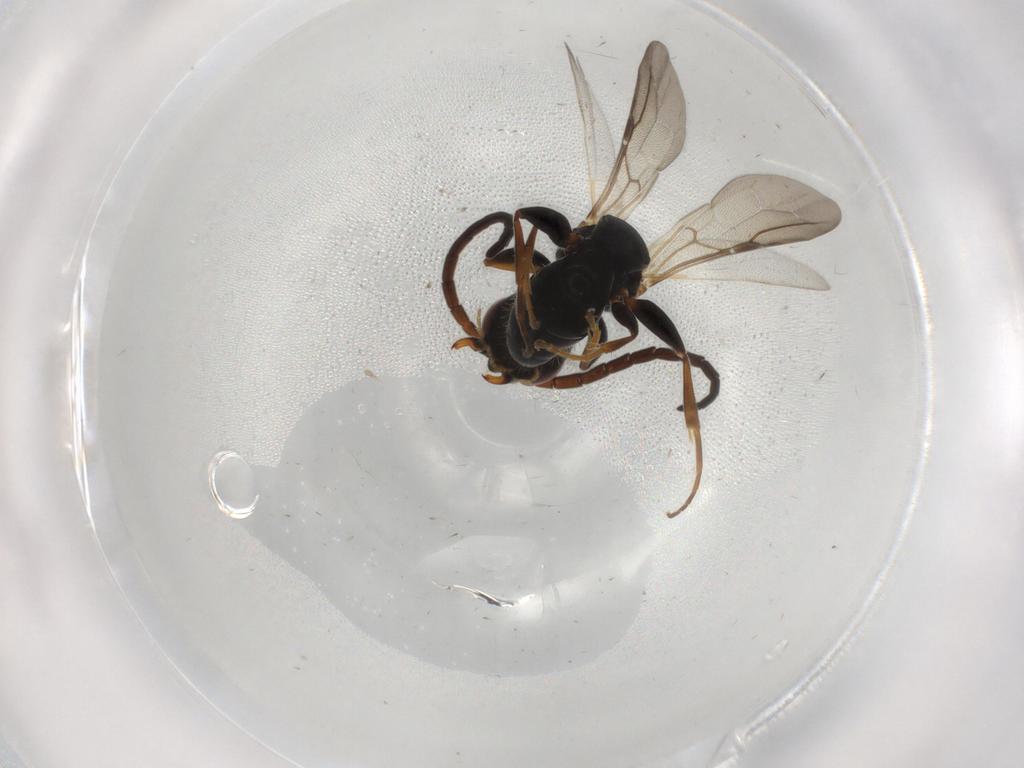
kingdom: Animalia
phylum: Arthropoda
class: Insecta
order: Hymenoptera
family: Bethylidae
